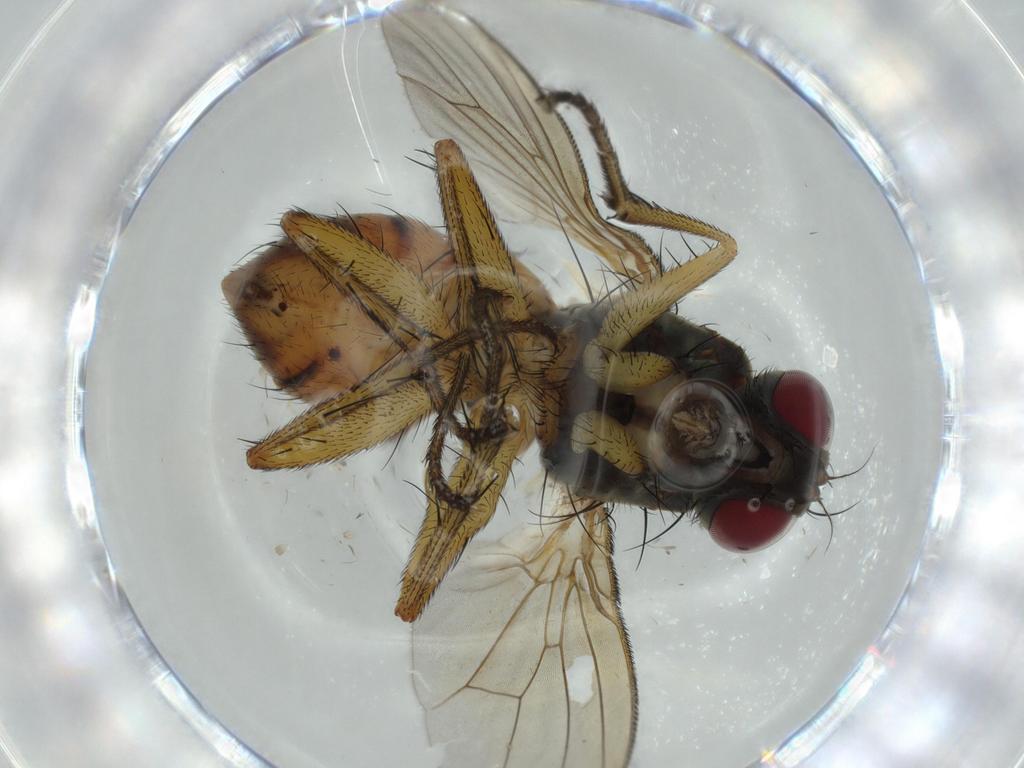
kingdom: Animalia
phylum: Arthropoda
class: Insecta
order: Diptera
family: Muscidae
